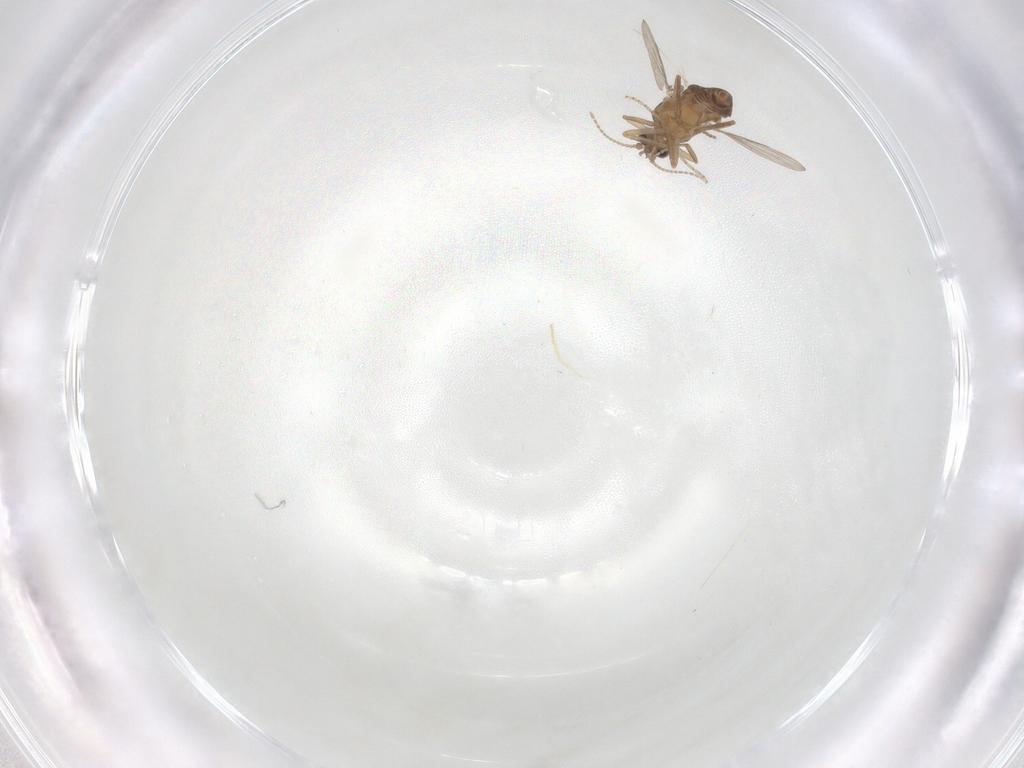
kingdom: Animalia
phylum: Arthropoda
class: Insecta
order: Diptera
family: Ceratopogonidae
